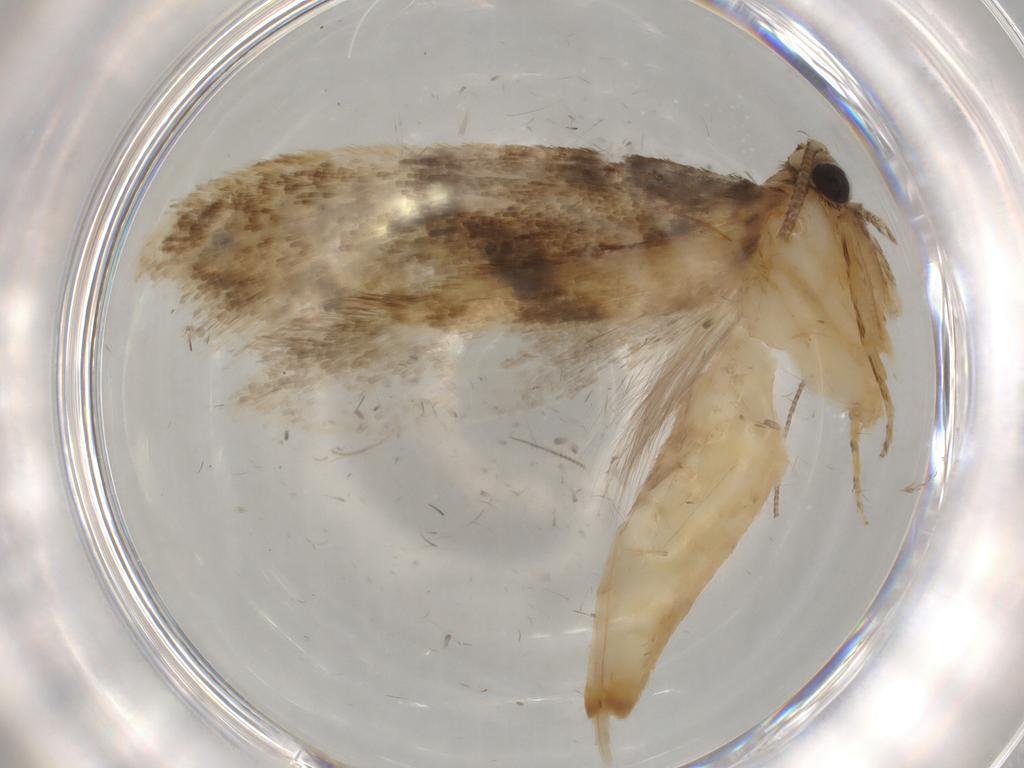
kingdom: Animalia
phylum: Arthropoda
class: Insecta
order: Lepidoptera
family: Tineidae
